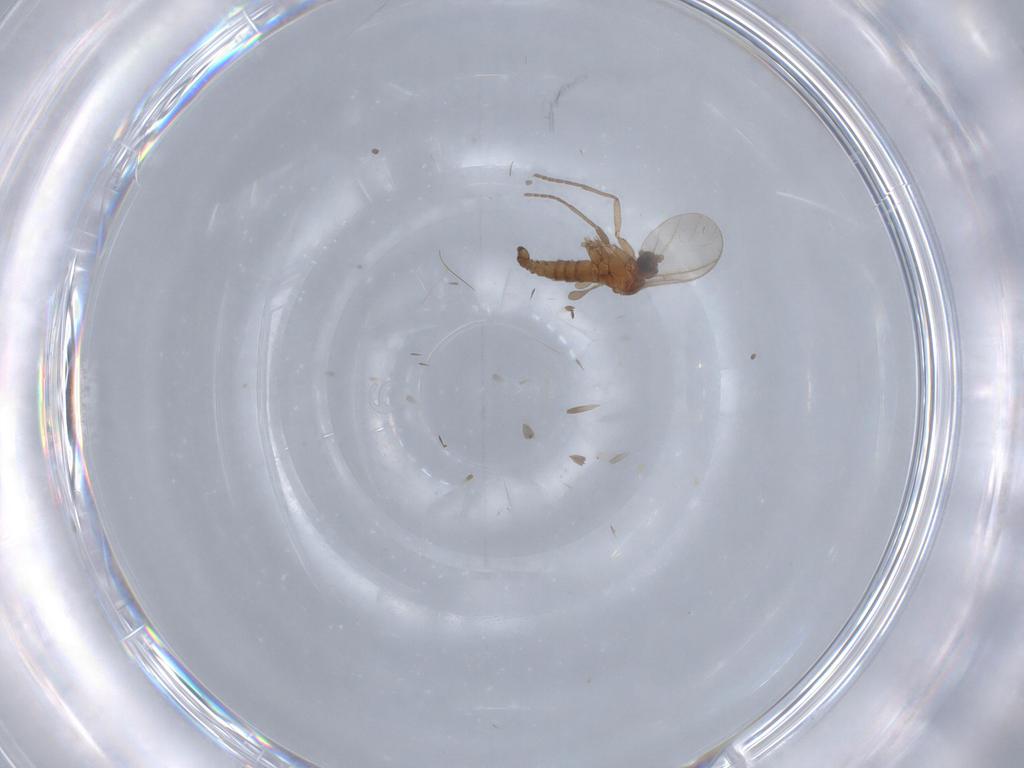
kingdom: Animalia
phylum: Arthropoda
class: Insecta
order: Diptera
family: Sciaridae
